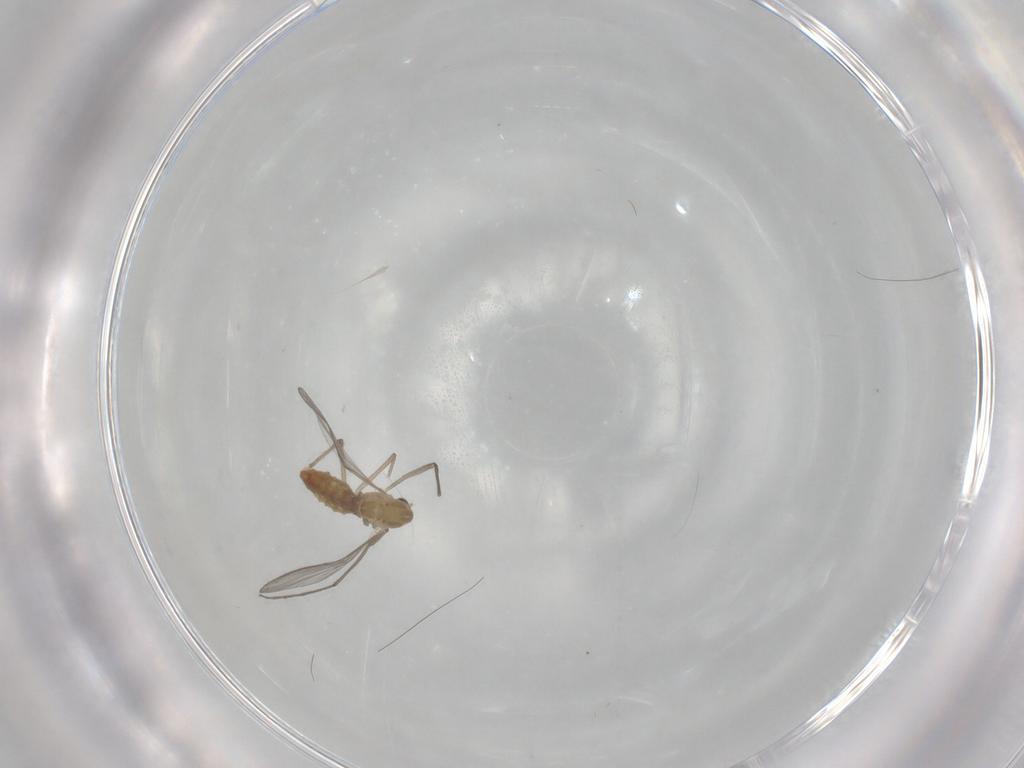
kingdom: Animalia
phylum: Arthropoda
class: Insecta
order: Diptera
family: Chironomidae
